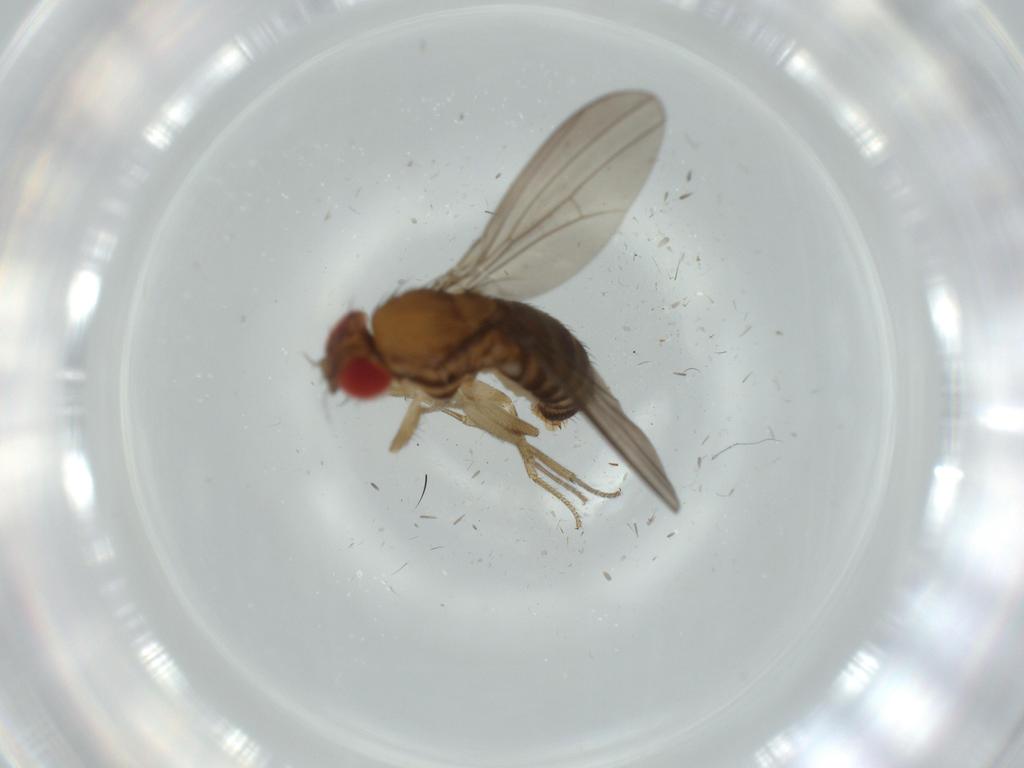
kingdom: Animalia
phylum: Arthropoda
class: Insecta
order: Diptera
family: Drosophilidae
